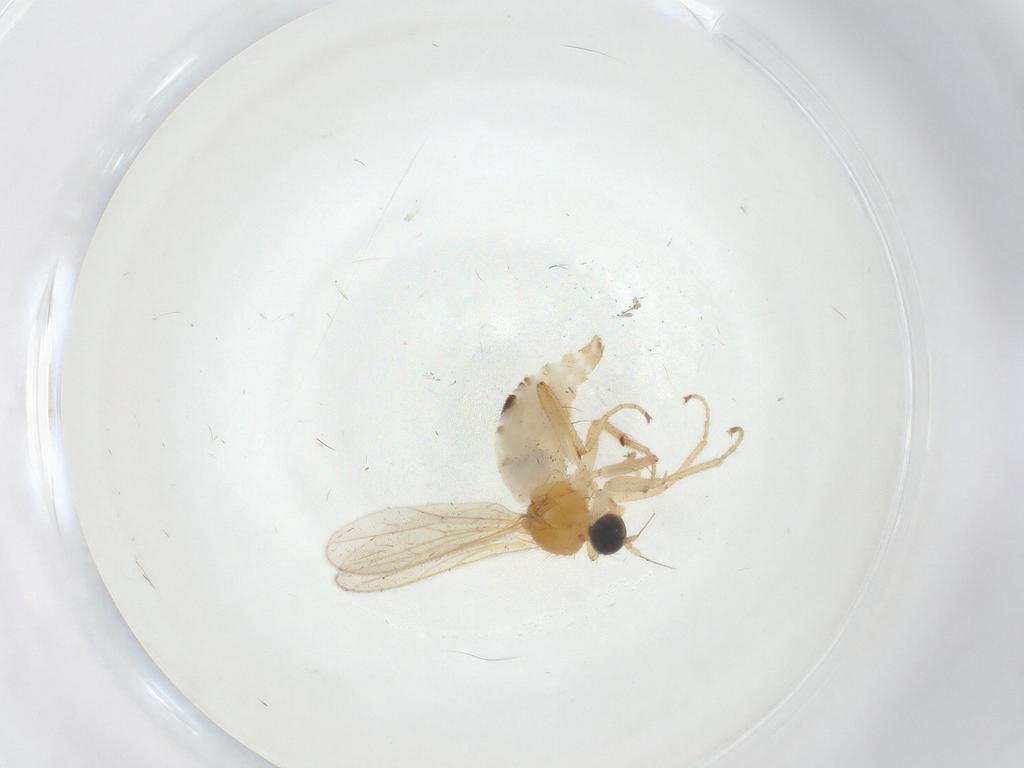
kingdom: Animalia
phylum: Arthropoda
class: Insecta
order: Diptera
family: Hybotidae
